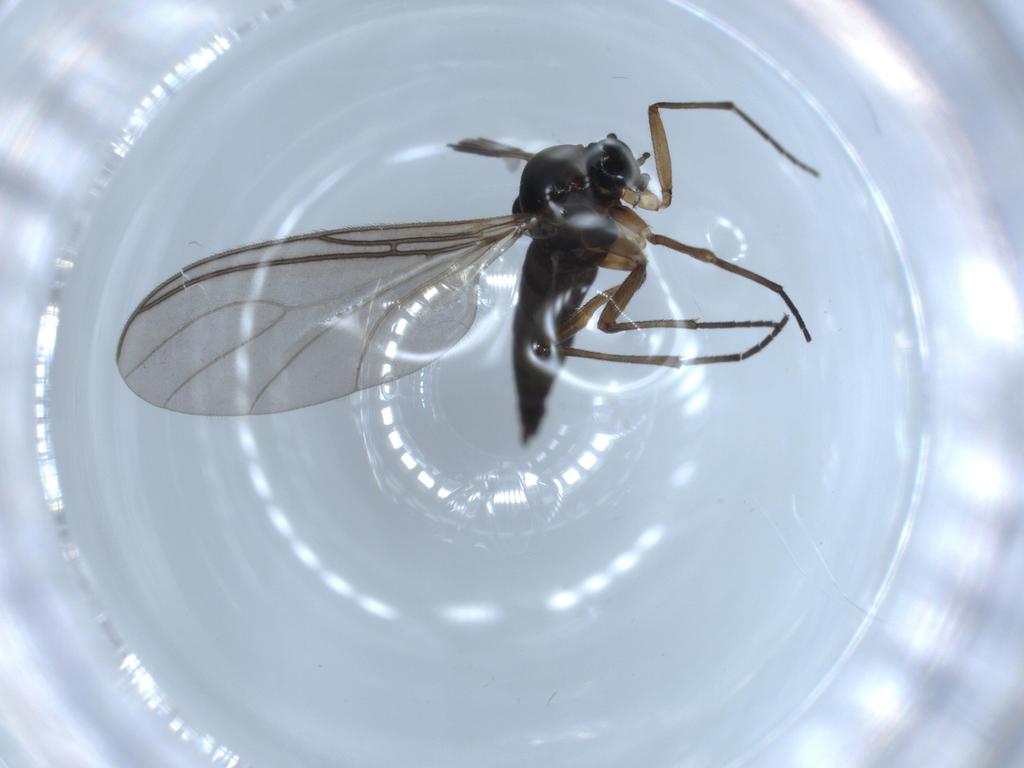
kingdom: Animalia
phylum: Arthropoda
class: Insecta
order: Diptera
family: Sciaridae
